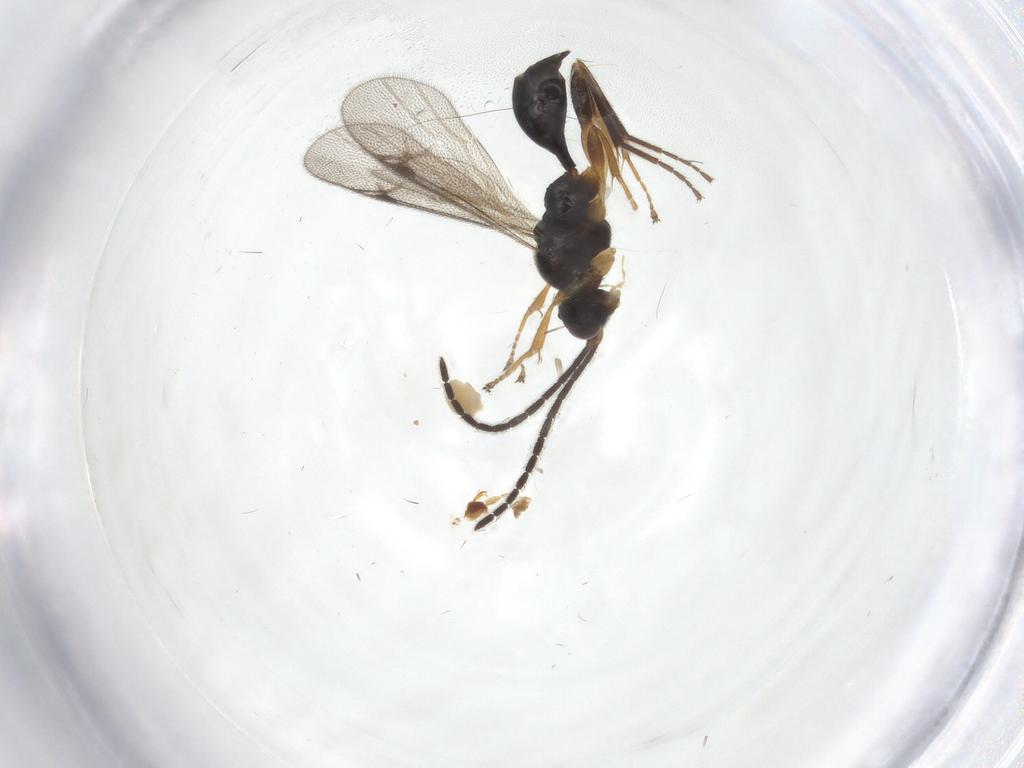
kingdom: Animalia
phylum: Arthropoda
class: Insecta
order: Hymenoptera
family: Proctotrupidae
